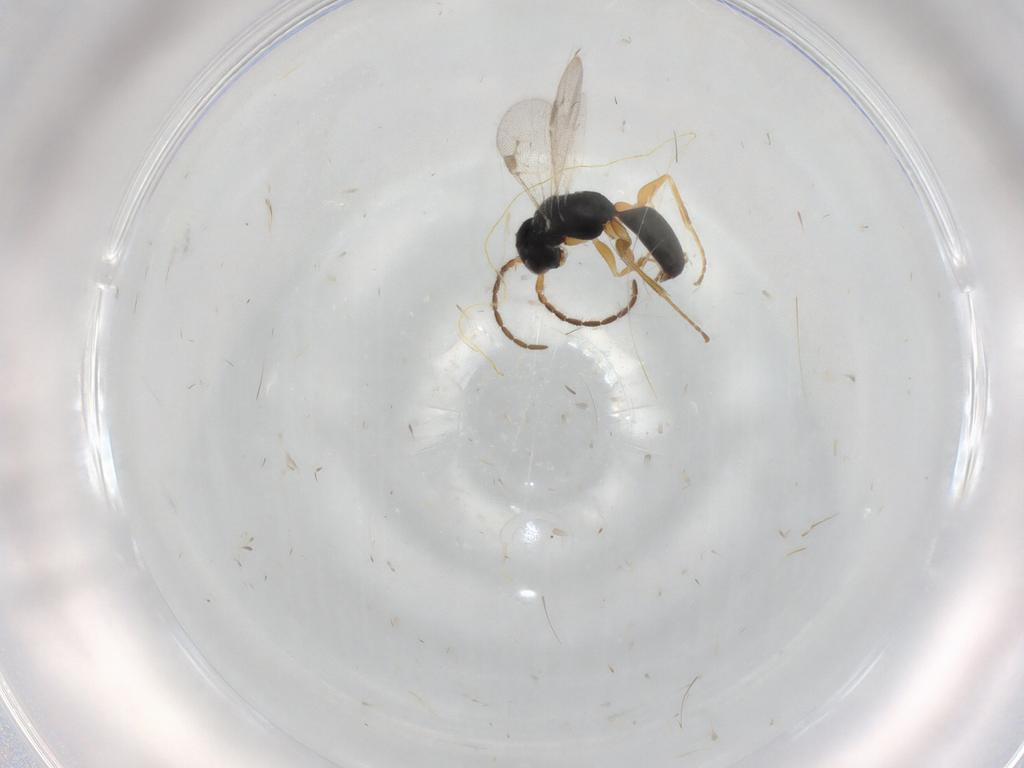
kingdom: Animalia
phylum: Arthropoda
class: Insecta
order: Hymenoptera
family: Dryinidae
